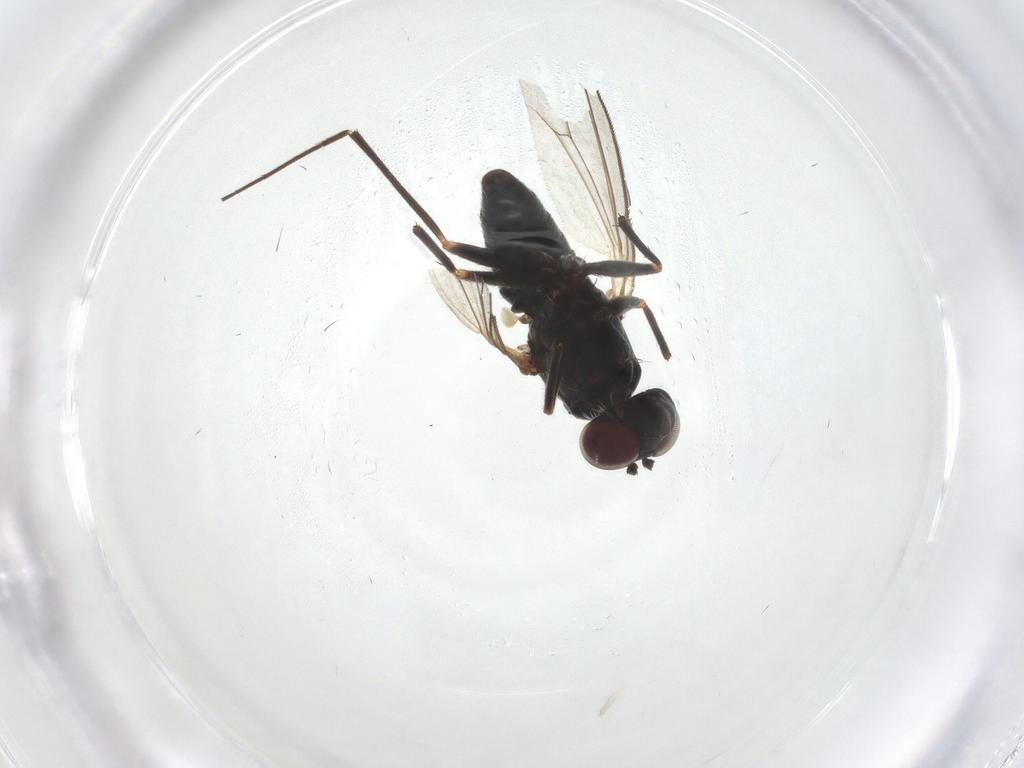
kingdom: Animalia
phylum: Arthropoda
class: Insecta
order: Diptera
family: Dolichopodidae
